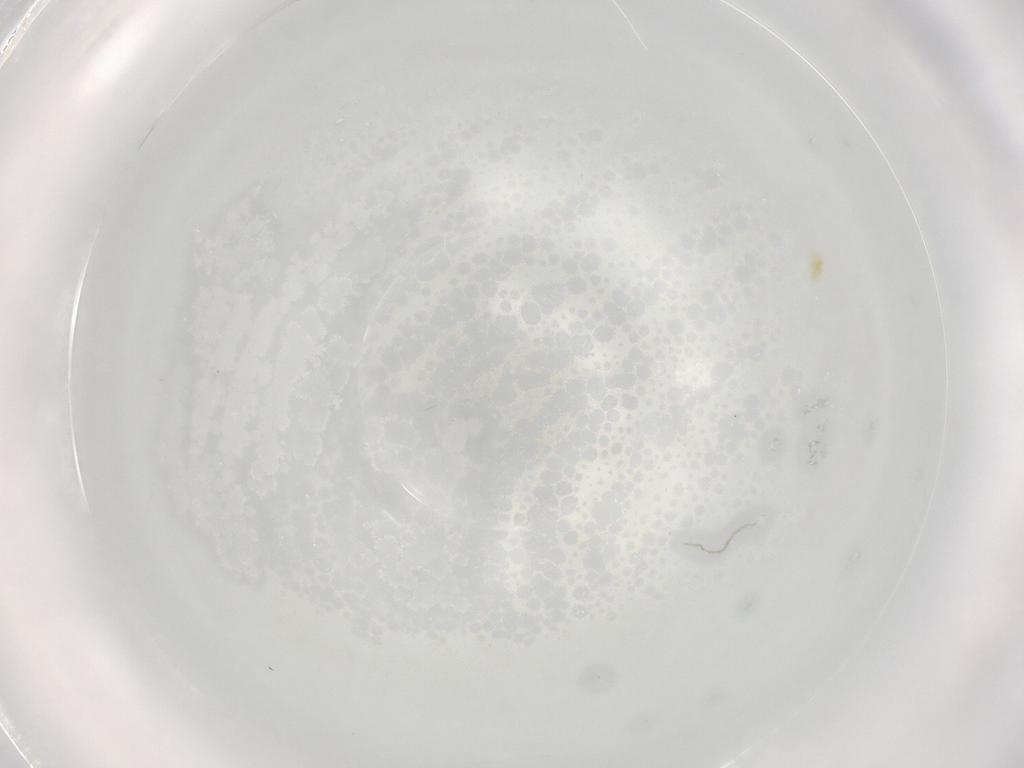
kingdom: Animalia
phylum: Arthropoda
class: Arachnida
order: Trombidiformes
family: Eupodidae
